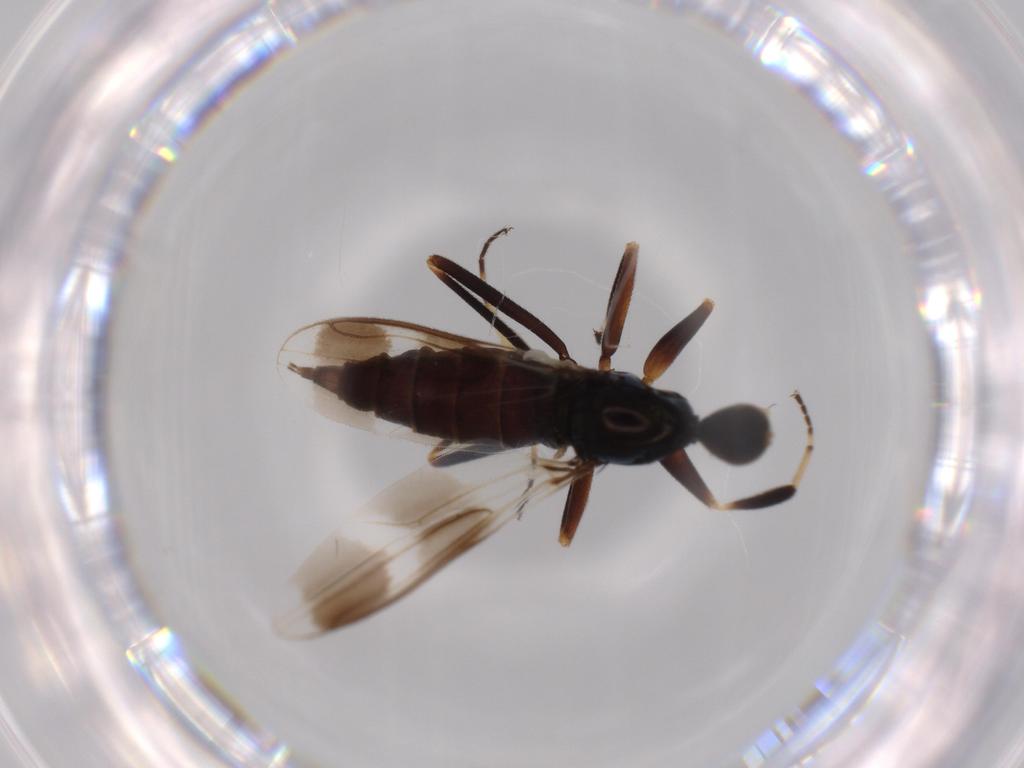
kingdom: Animalia
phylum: Arthropoda
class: Insecta
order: Diptera
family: Hybotidae
